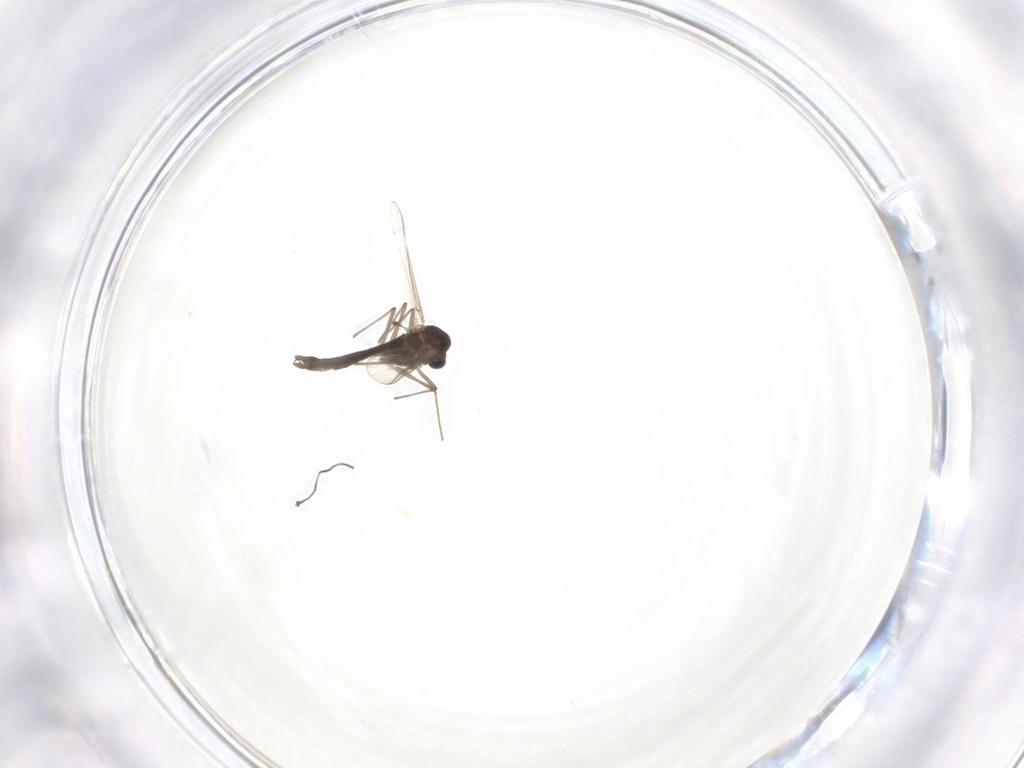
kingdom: Animalia
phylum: Arthropoda
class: Insecta
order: Diptera
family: Chironomidae
